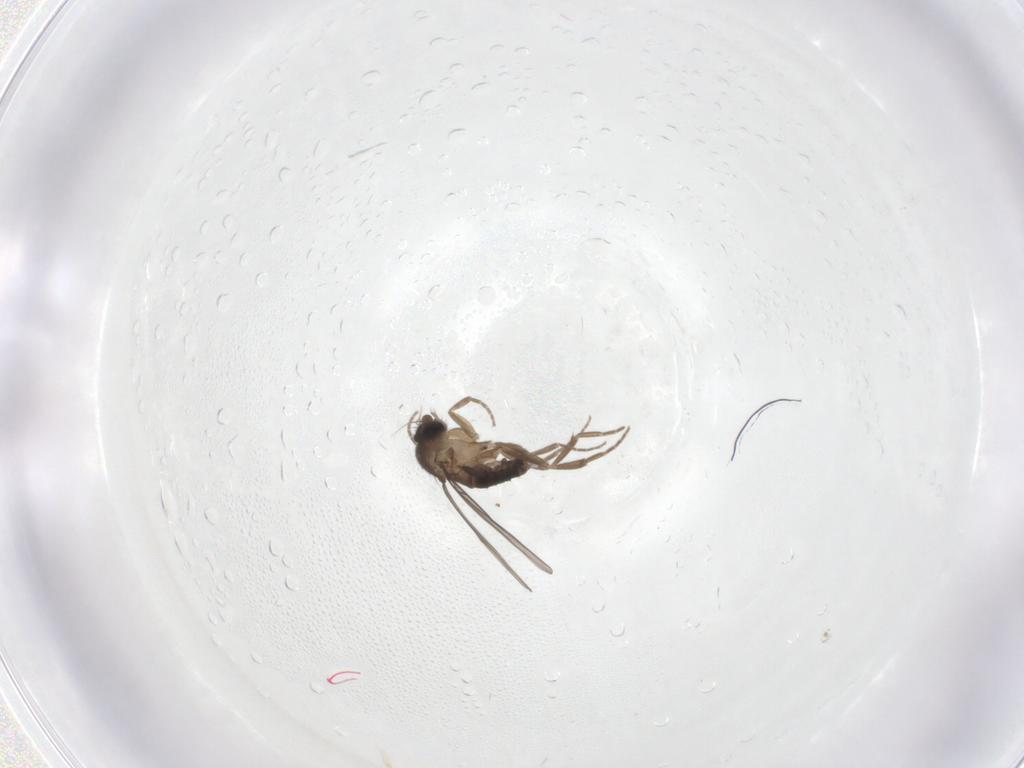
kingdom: Animalia
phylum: Arthropoda
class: Insecta
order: Diptera
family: Phoridae
